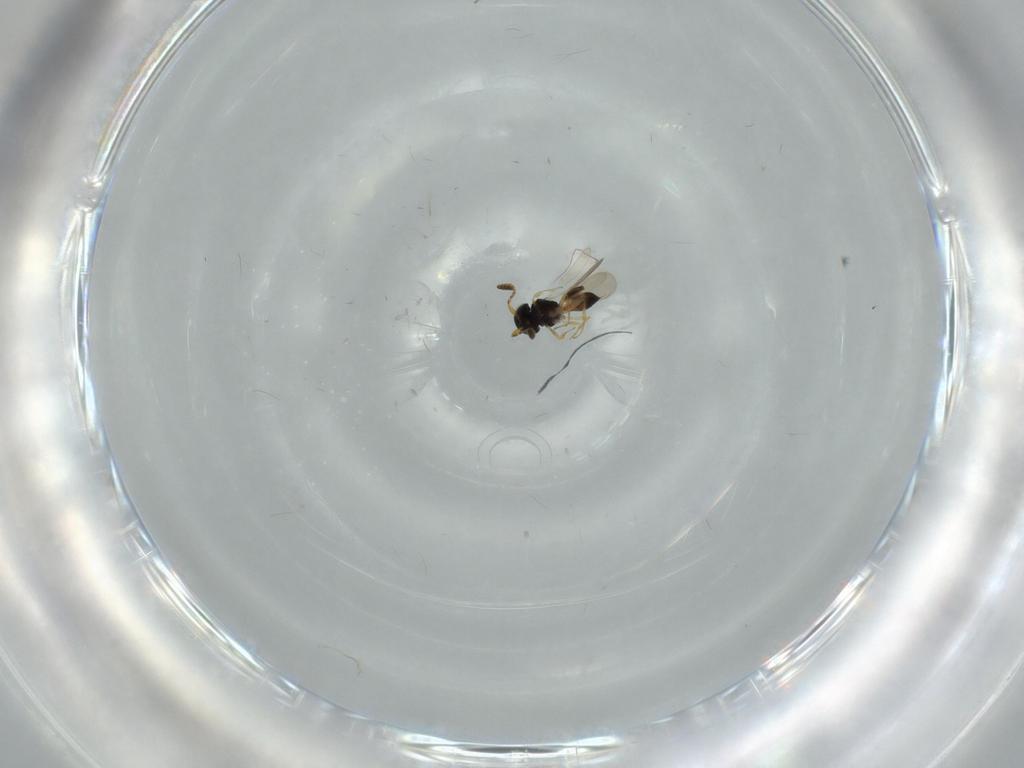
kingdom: Animalia
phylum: Arthropoda
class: Insecta
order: Hymenoptera
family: Scelionidae
